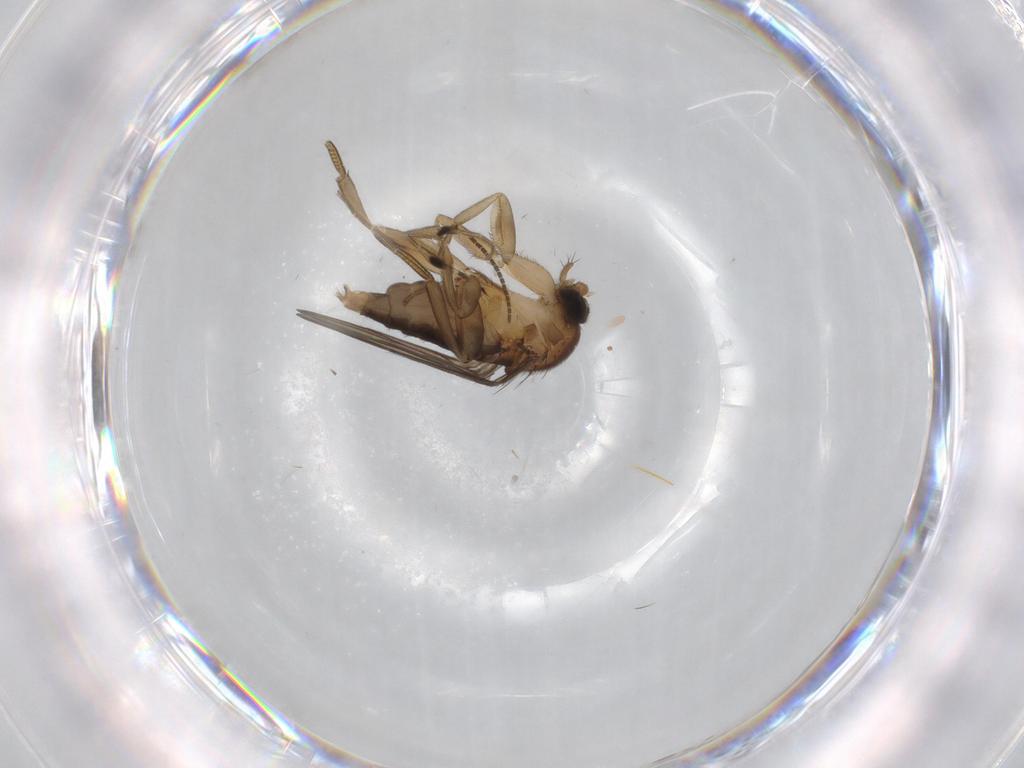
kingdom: Animalia
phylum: Arthropoda
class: Insecta
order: Diptera
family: Phoridae
